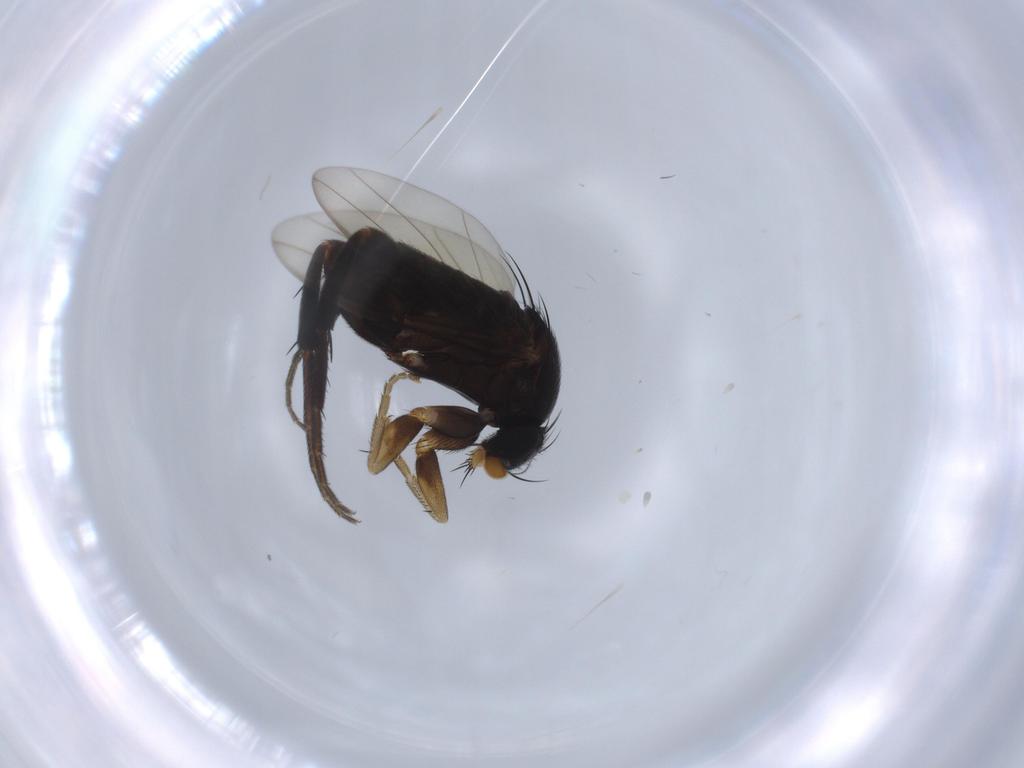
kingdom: Animalia
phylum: Arthropoda
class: Insecta
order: Diptera
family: Phoridae
